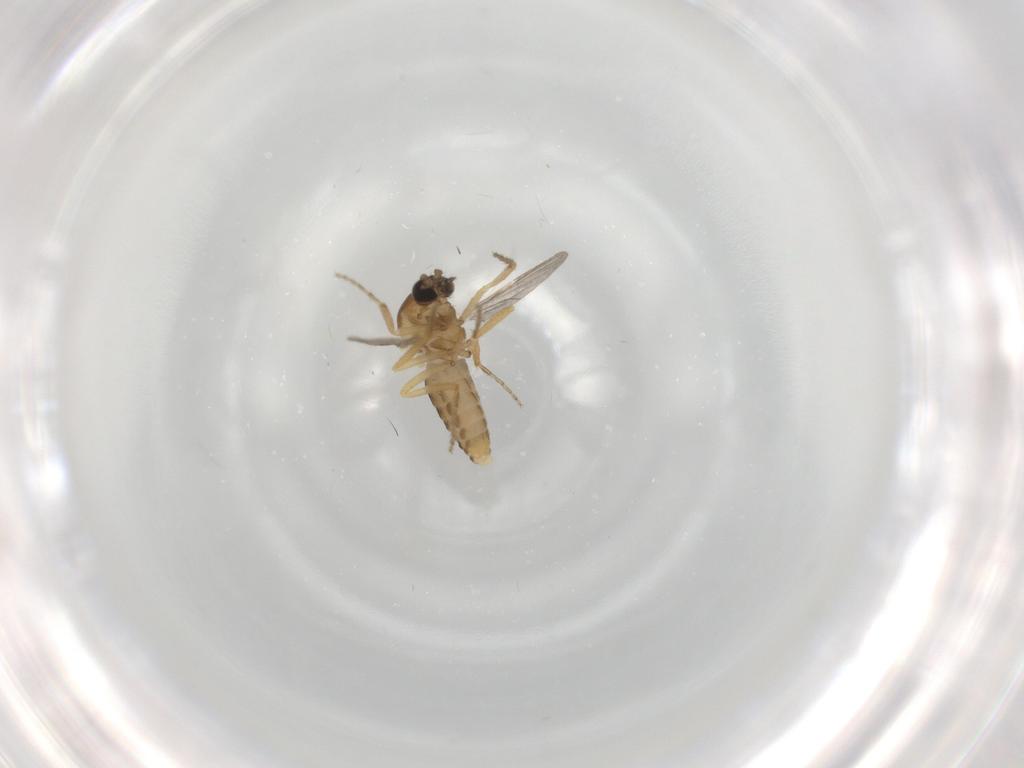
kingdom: Animalia
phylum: Arthropoda
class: Insecta
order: Diptera
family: Ceratopogonidae
